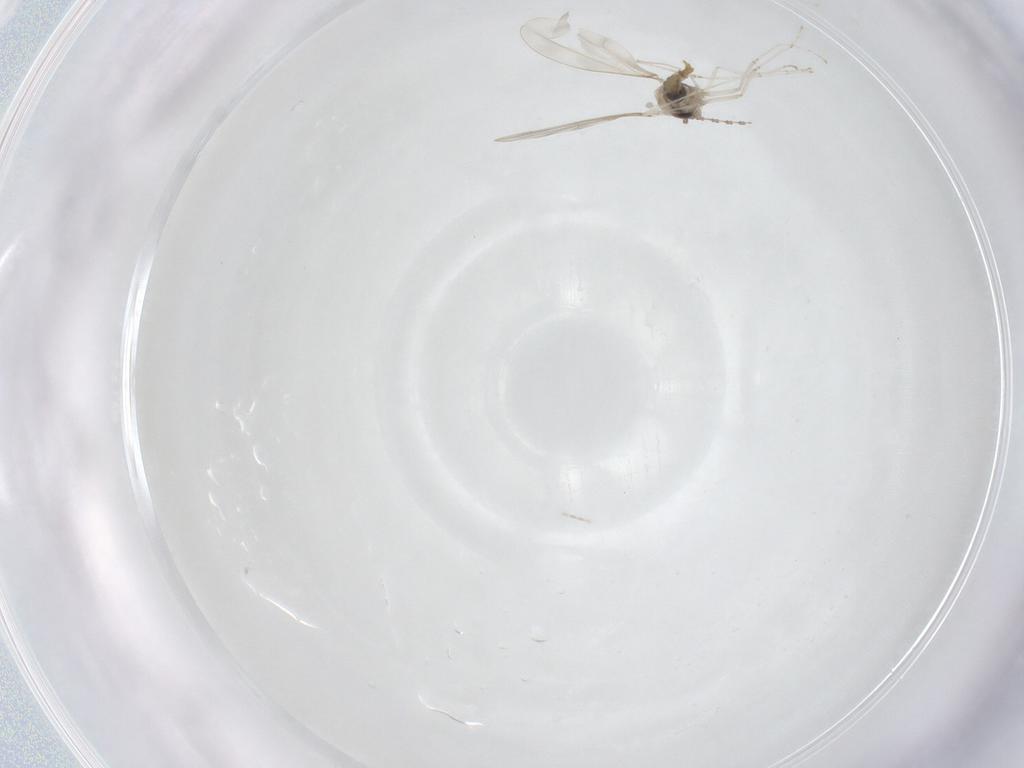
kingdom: Animalia
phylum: Arthropoda
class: Insecta
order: Diptera
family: Cecidomyiidae
